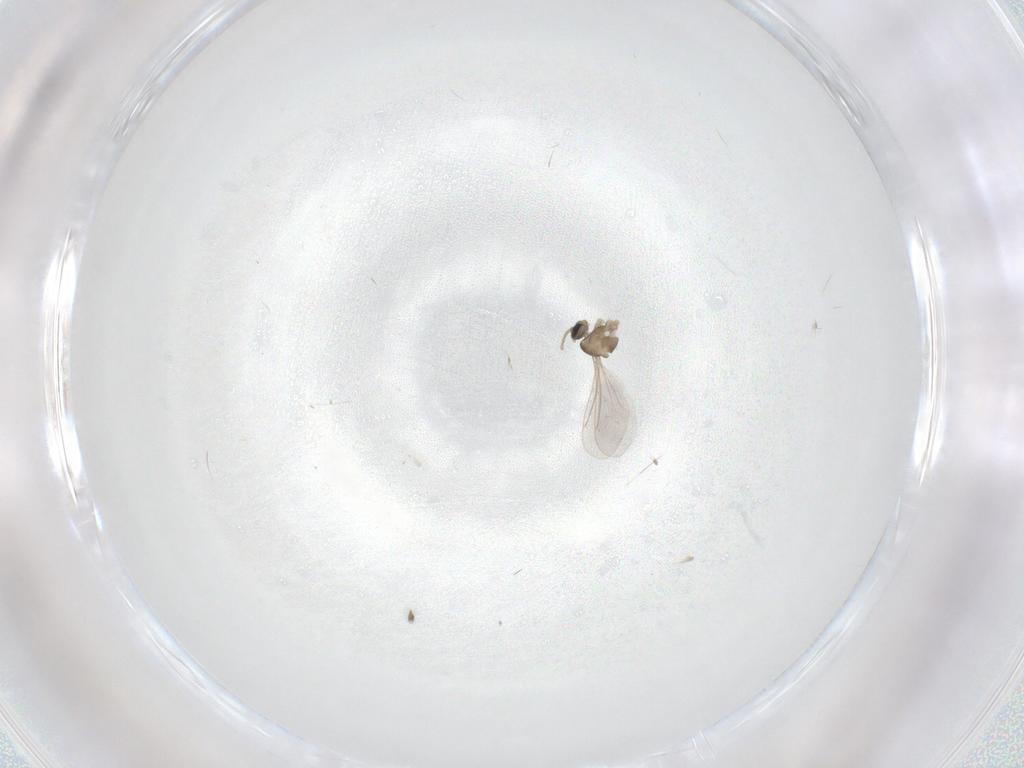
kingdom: Animalia
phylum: Arthropoda
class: Insecta
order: Diptera
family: Cecidomyiidae
